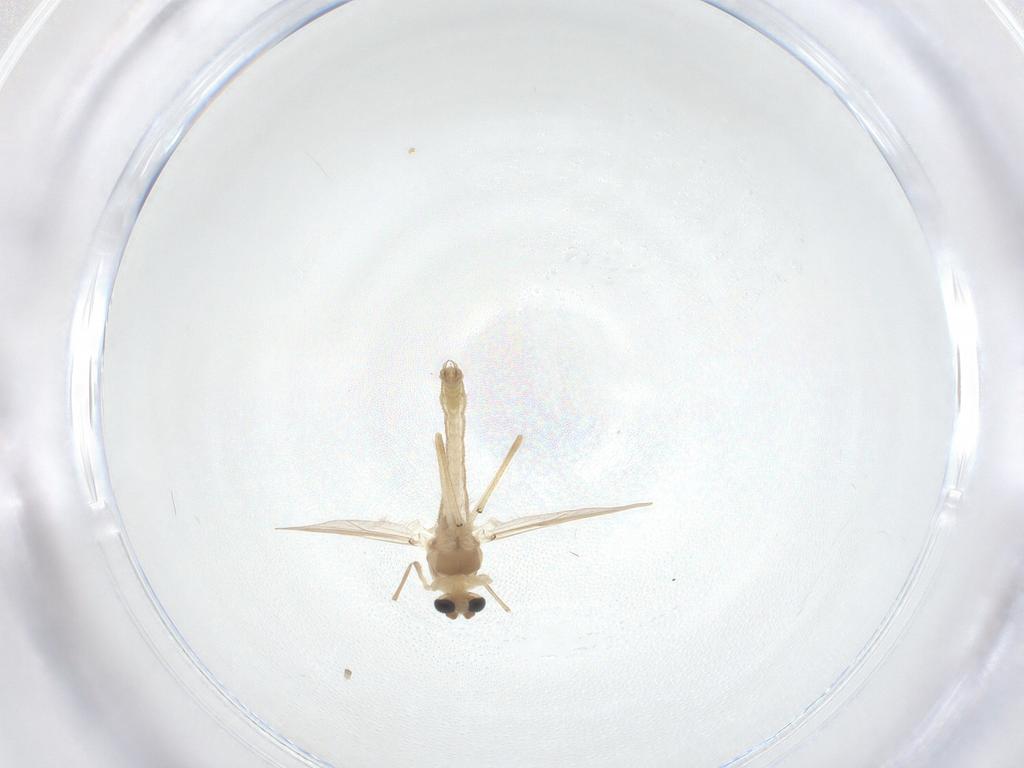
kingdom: Animalia
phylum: Arthropoda
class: Insecta
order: Diptera
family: Chironomidae
